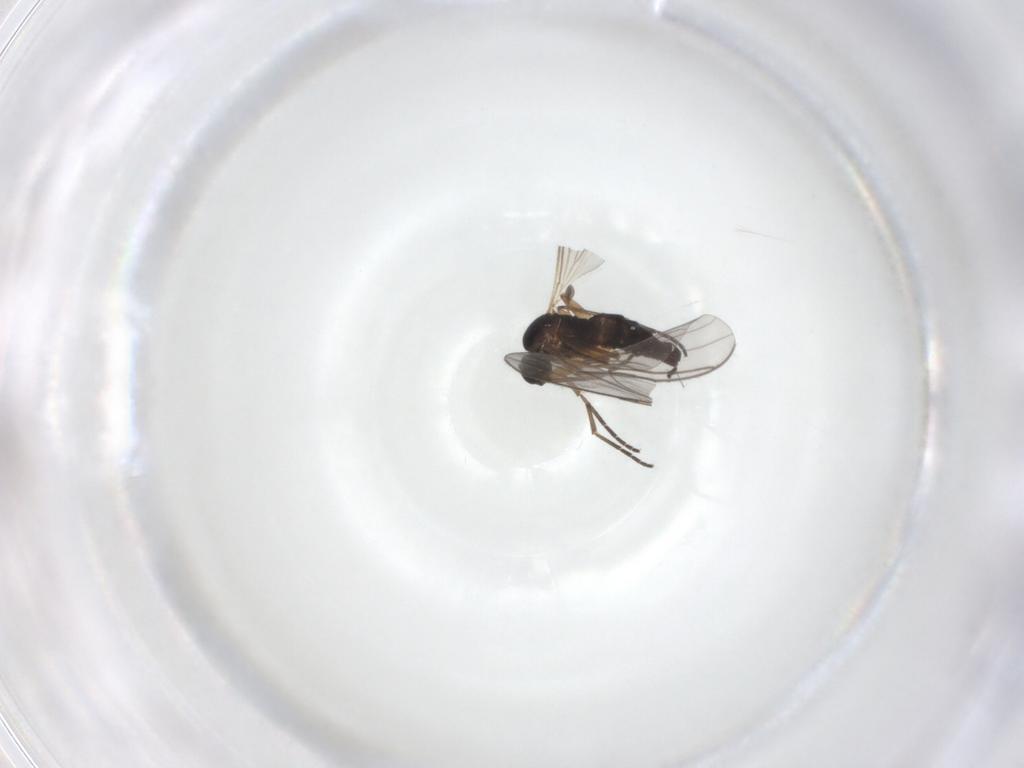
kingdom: Animalia
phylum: Arthropoda
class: Insecta
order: Diptera
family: Sciaridae
